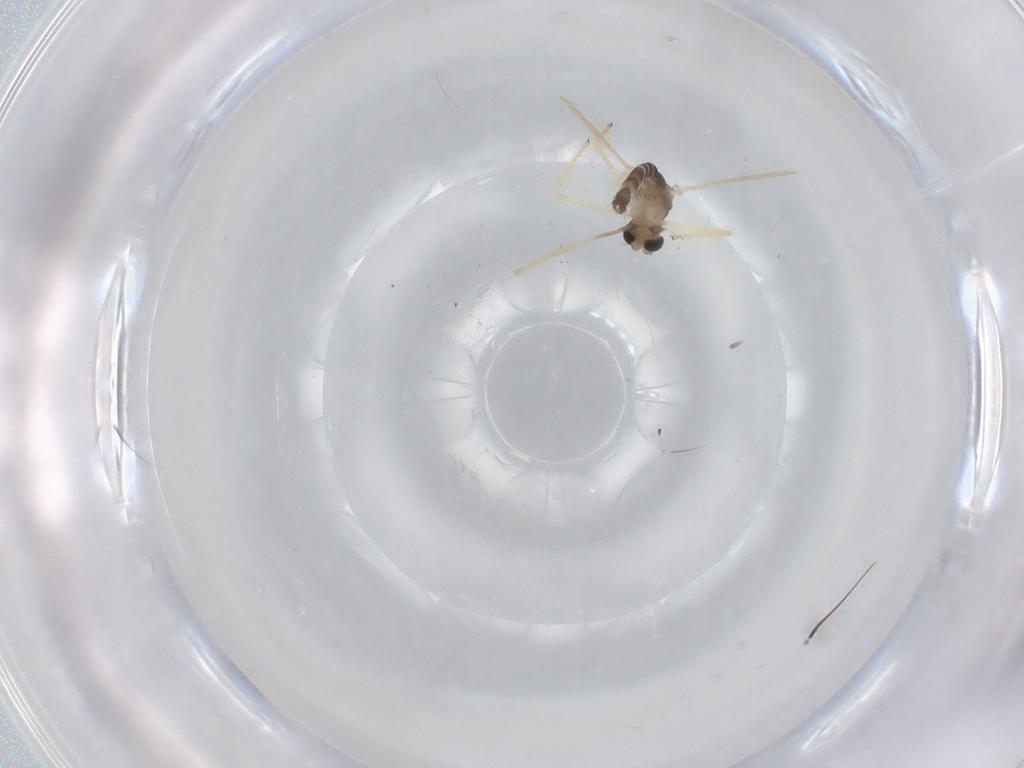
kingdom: Animalia
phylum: Arthropoda
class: Insecta
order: Diptera
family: Chironomidae
